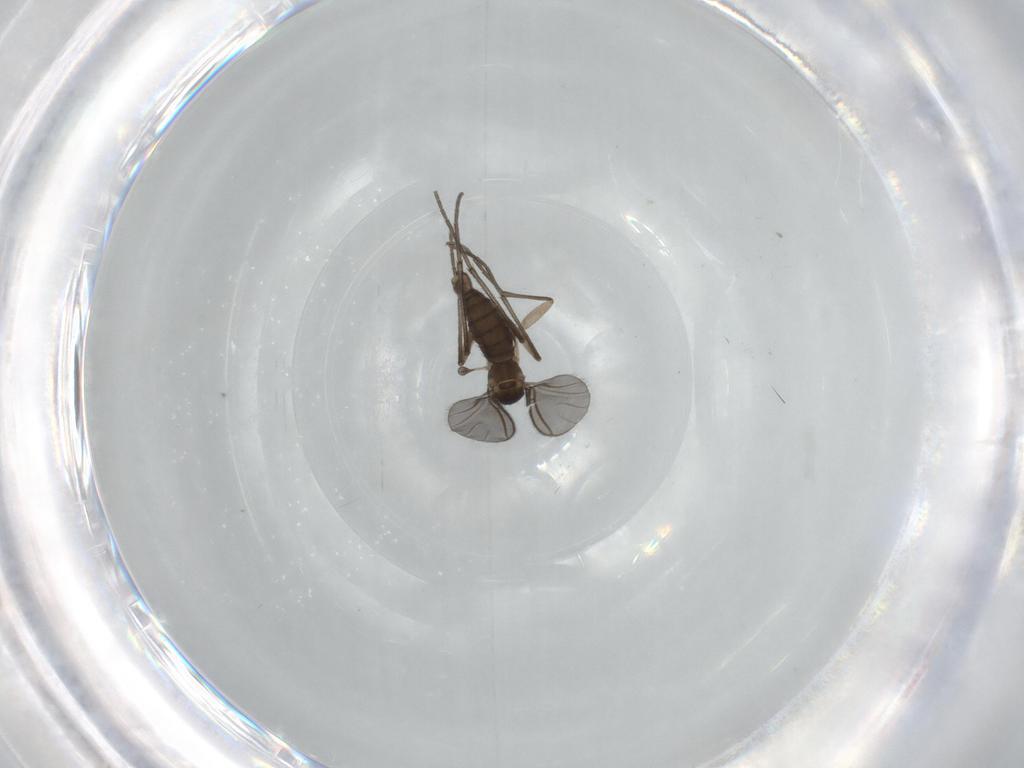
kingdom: Animalia
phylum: Arthropoda
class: Insecta
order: Diptera
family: Sciaridae
